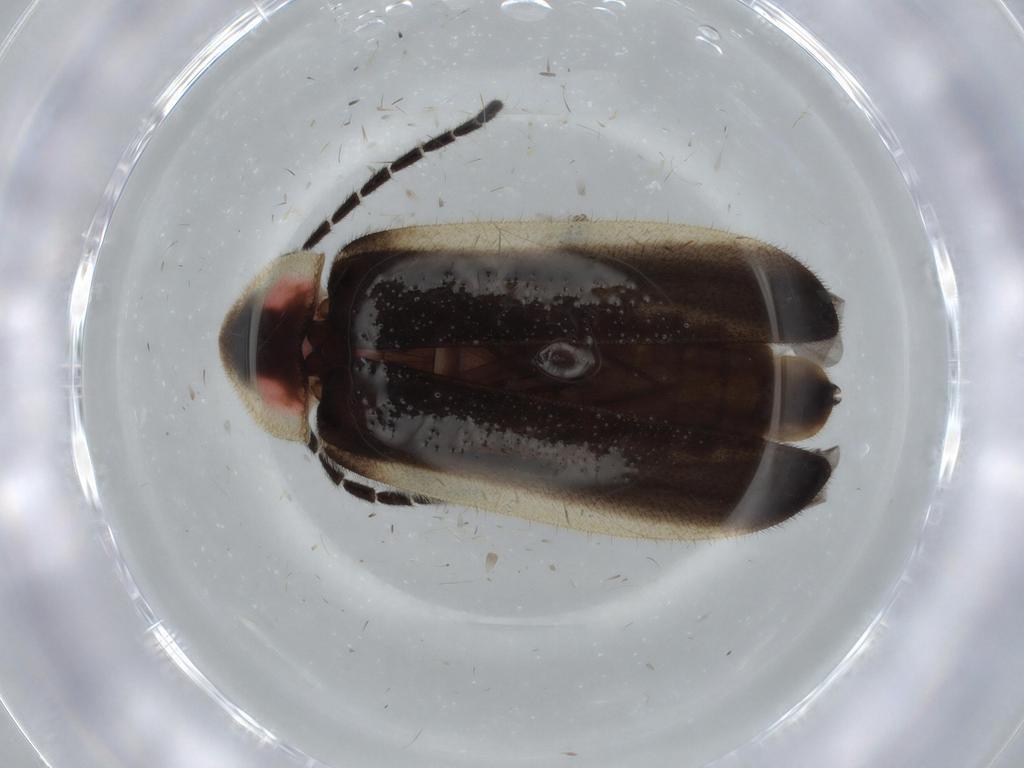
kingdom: Animalia
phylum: Arthropoda
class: Insecta
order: Coleoptera
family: Lampyridae
